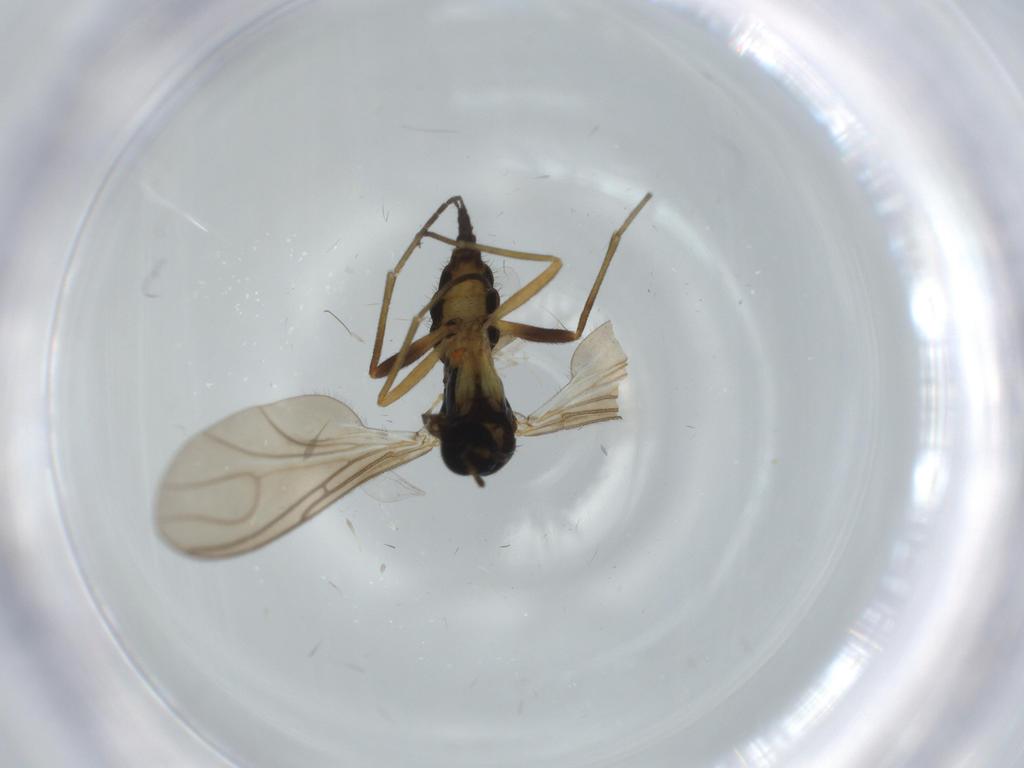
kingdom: Animalia
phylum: Arthropoda
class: Insecta
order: Diptera
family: Sciaridae
